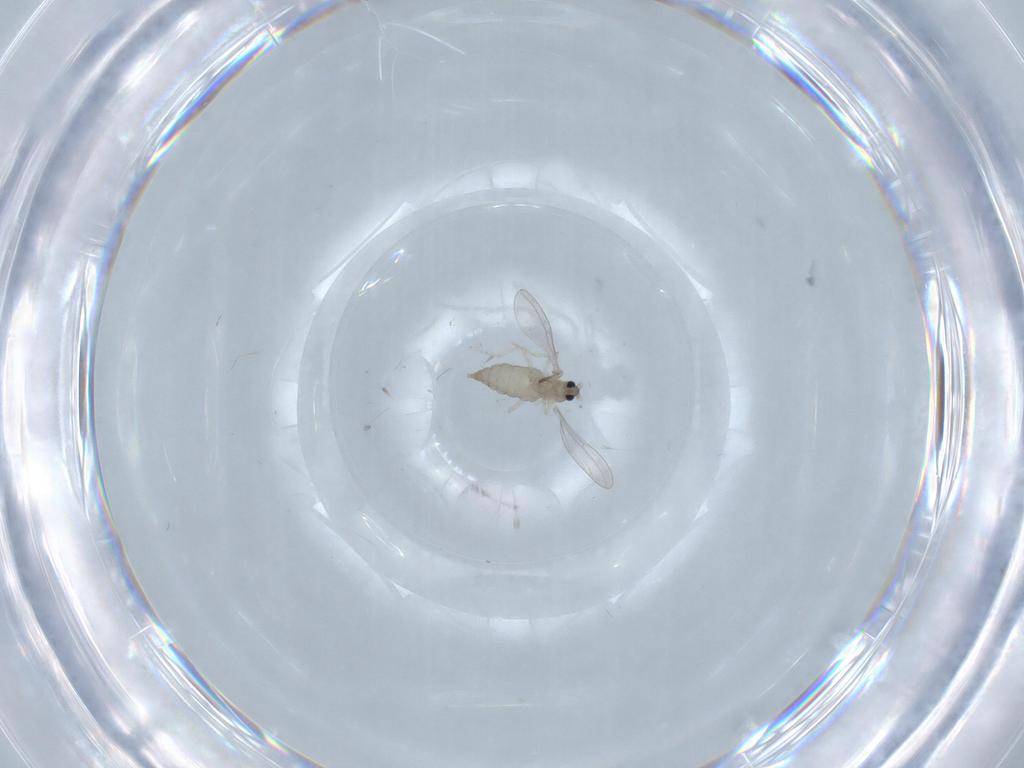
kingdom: Animalia
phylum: Arthropoda
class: Insecta
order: Diptera
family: Cecidomyiidae
